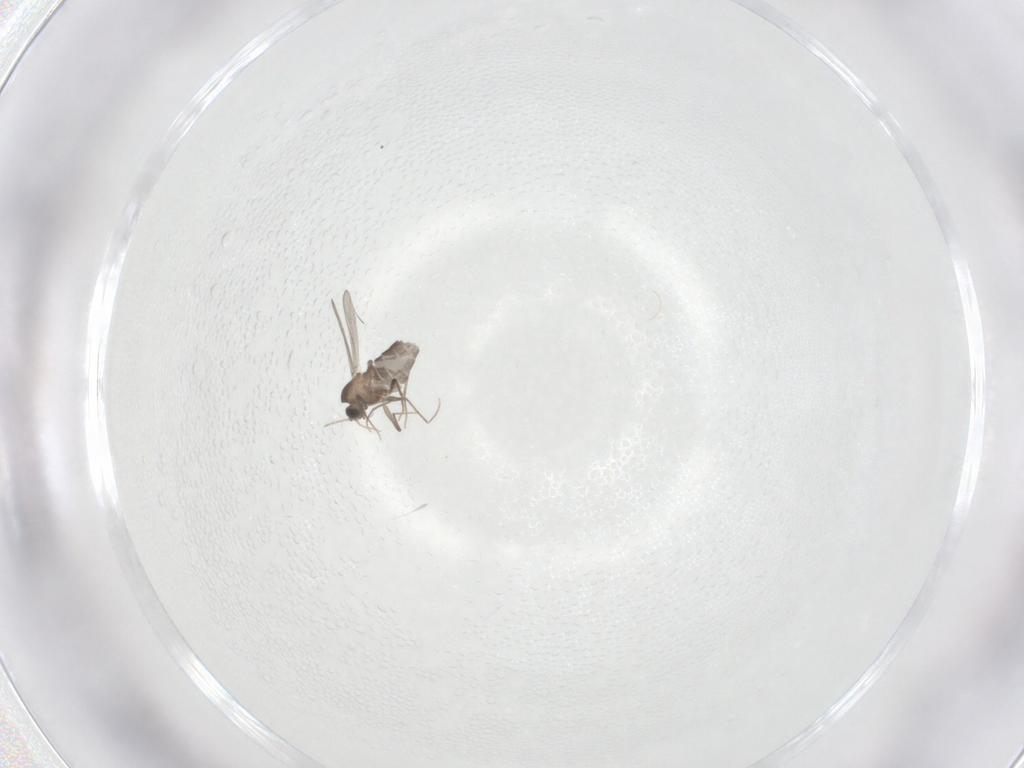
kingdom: Animalia
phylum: Arthropoda
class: Insecta
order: Diptera
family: Chironomidae
